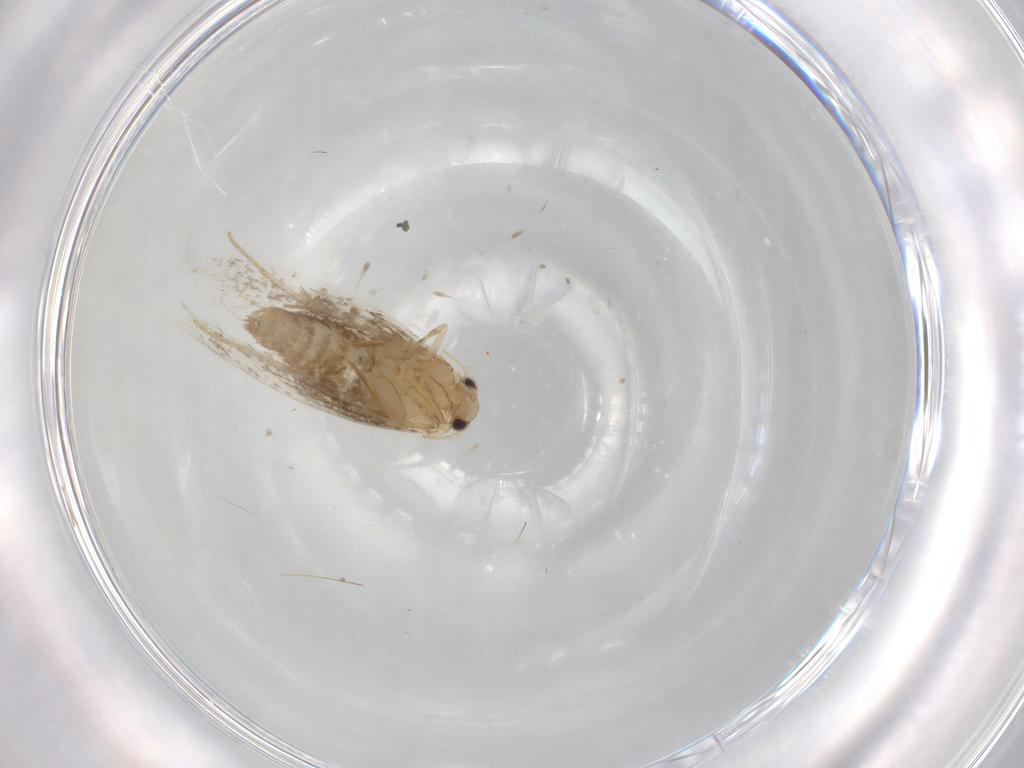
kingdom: Animalia
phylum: Arthropoda
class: Insecta
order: Lepidoptera
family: Incurvariidae
